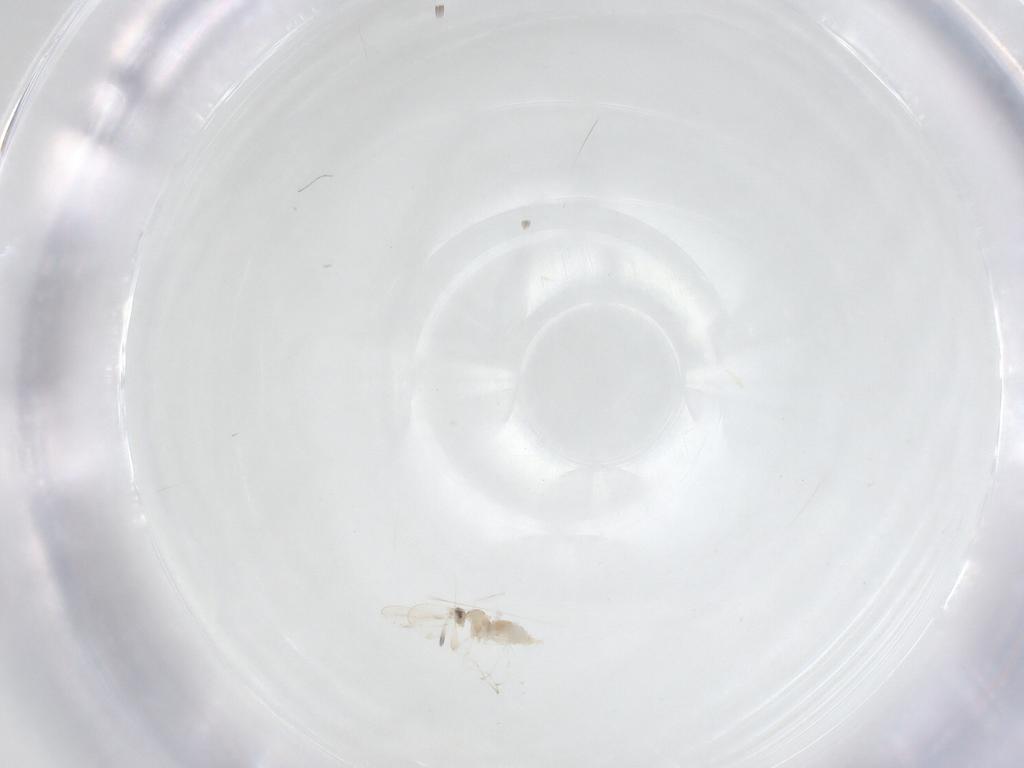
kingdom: Animalia
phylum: Arthropoda
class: Insecta
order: Diptera
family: Cecidomyiidae
